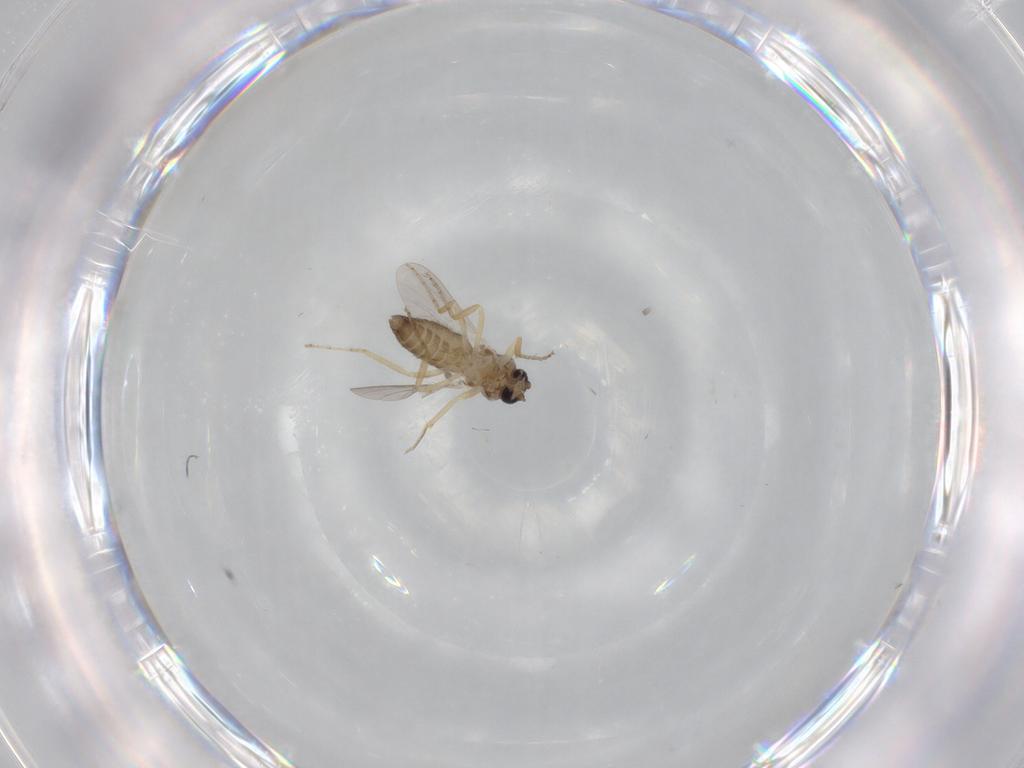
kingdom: Animalia
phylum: Arthropoda
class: Insecta
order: Diptera
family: Ceratopogonidae
